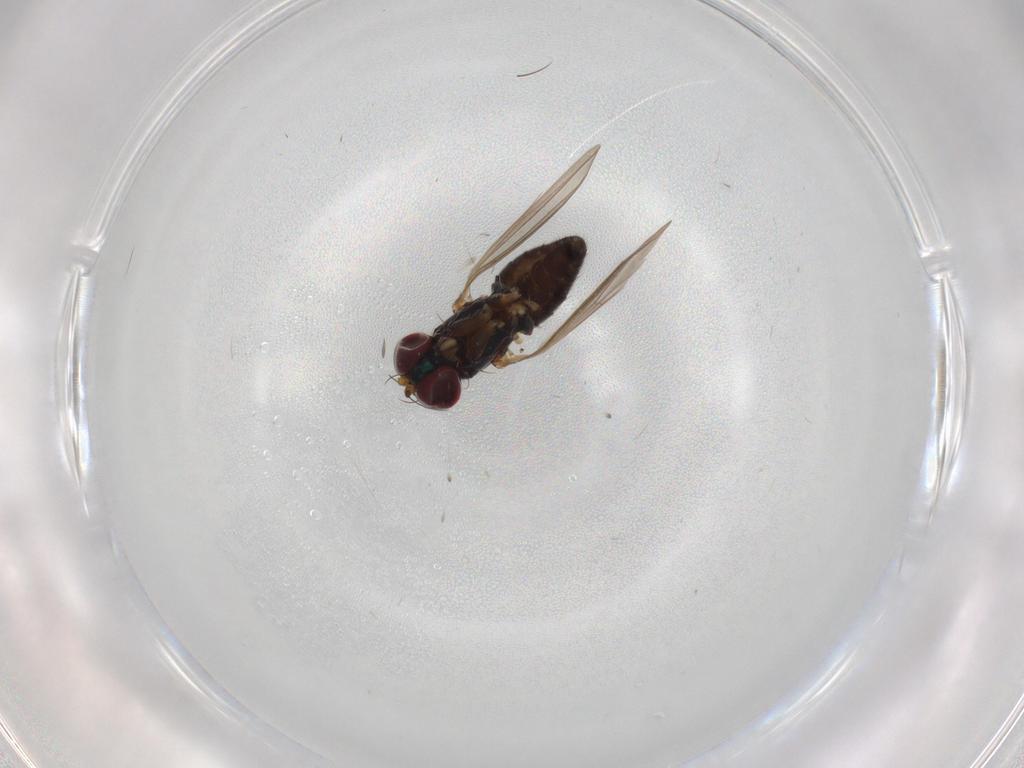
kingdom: Animalia
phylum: Arthropoda
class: Insecta
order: Diptera
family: Dolichopodidae
